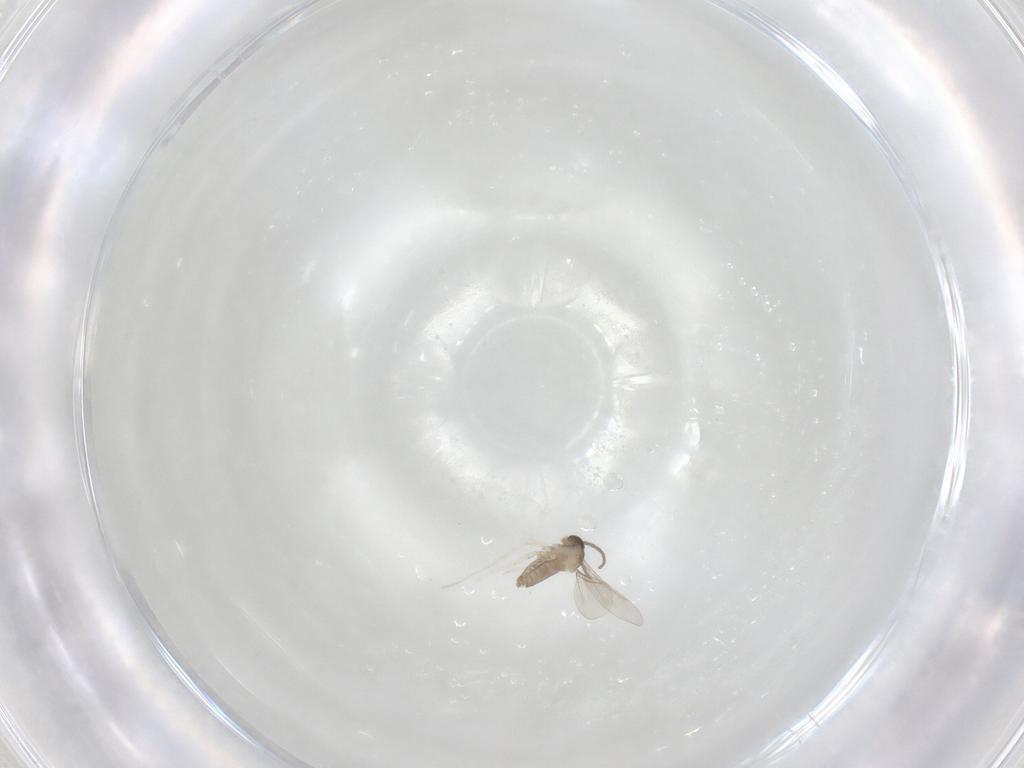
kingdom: Animalia
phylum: Arthropoda
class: Insecta
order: Diptera
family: Cecidomyiidae
